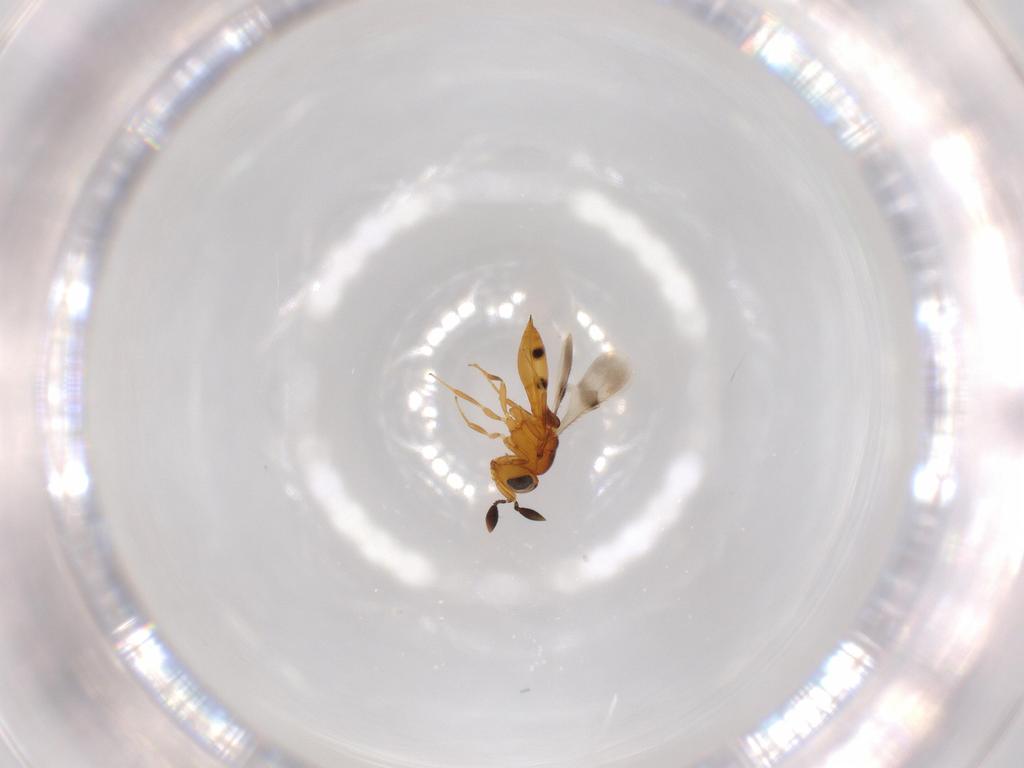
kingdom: Animalia
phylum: Arthropoda
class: Insecta
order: Hymenoptera
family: Scelionidae
